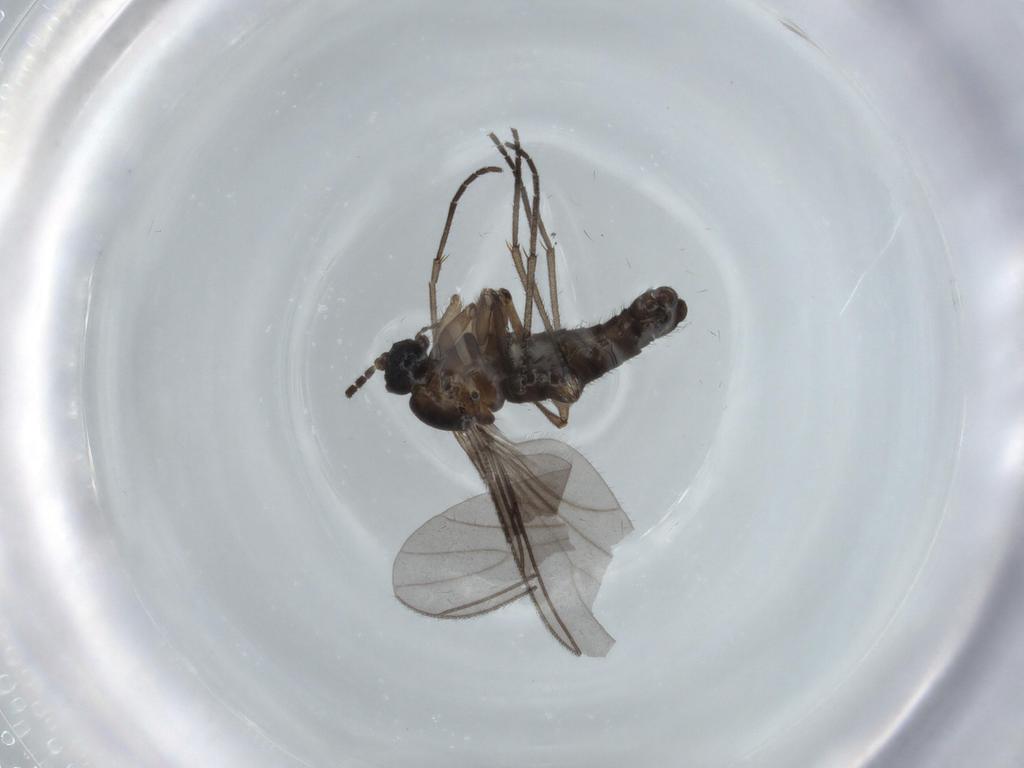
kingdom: Animalia
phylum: Arthropoda
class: Insecta
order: Diptera
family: Sciaridae
